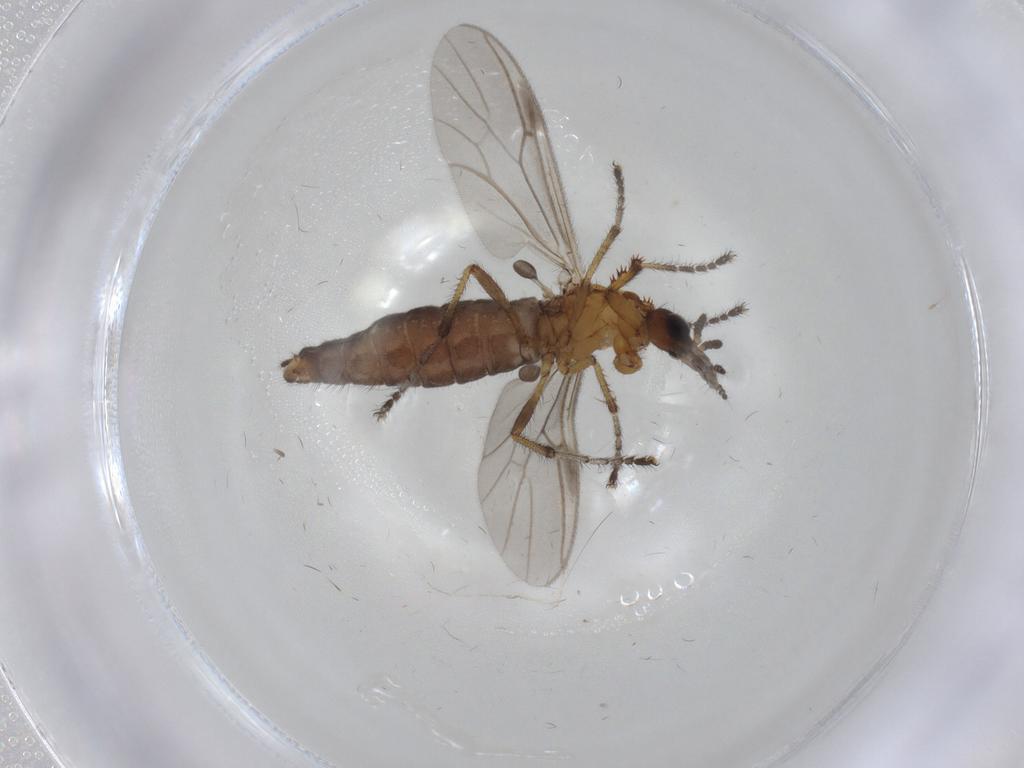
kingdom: Animalia
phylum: Arthropoda
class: Insecta
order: Diptera
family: Bibionidae
